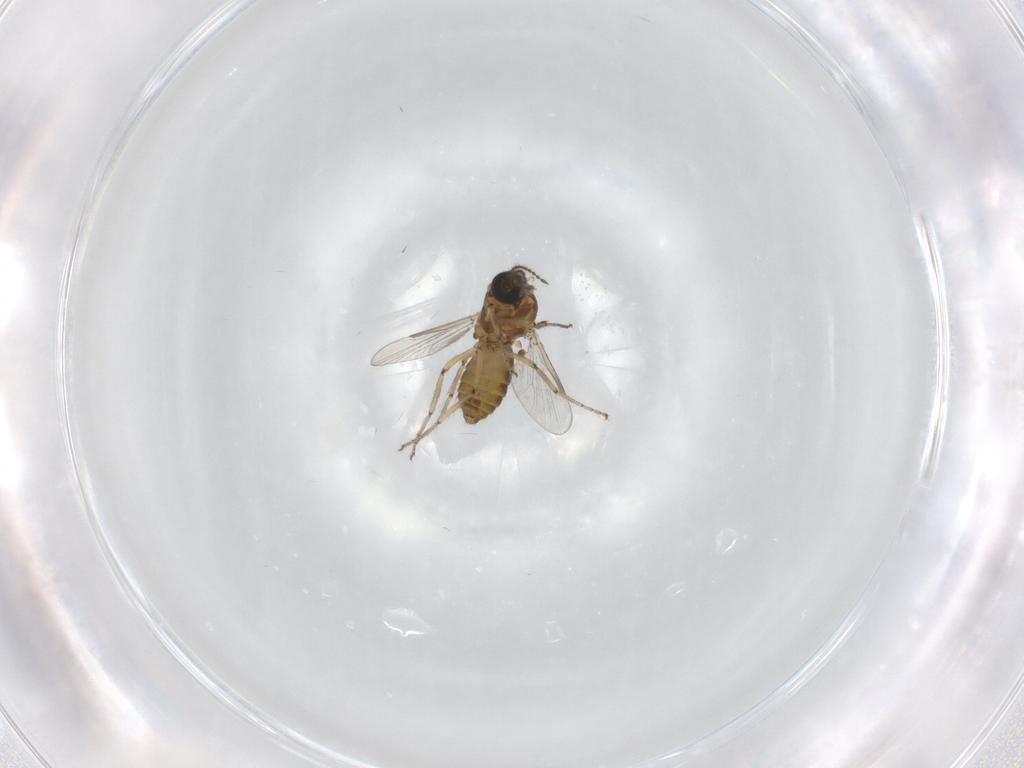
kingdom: Animalia
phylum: Arthropoda
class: Insecta
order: Diptera
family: Ceratopogonidae
